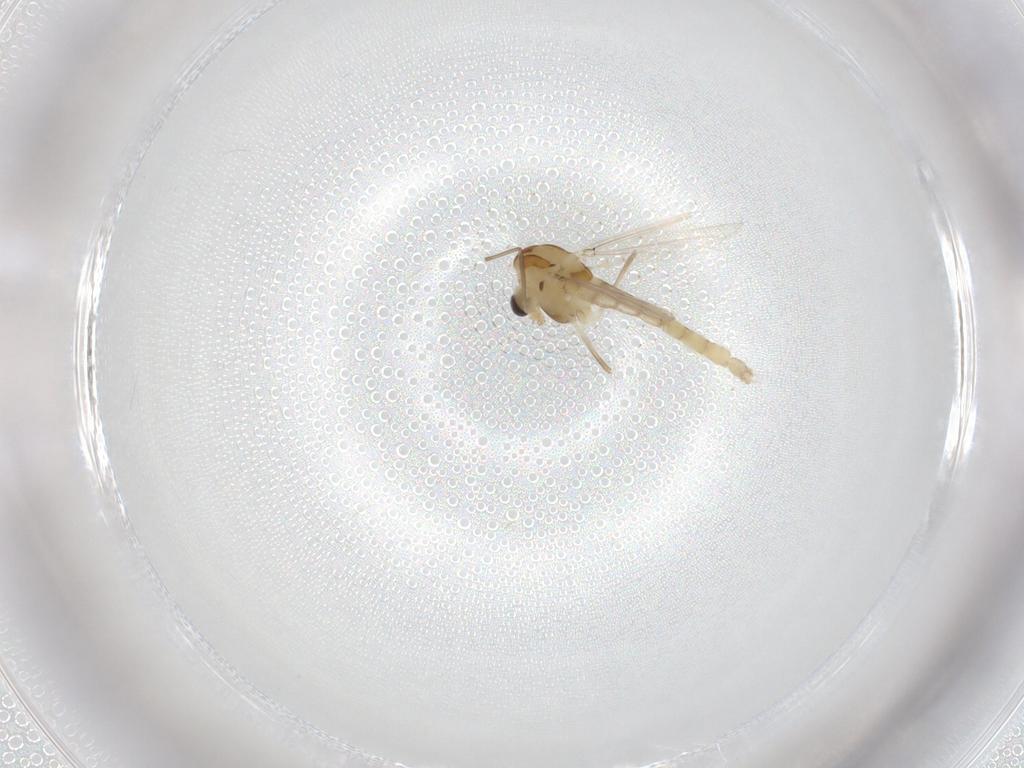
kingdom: Animalia
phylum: Arthropoda
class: Insecta
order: Diptera
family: Chironomidae
